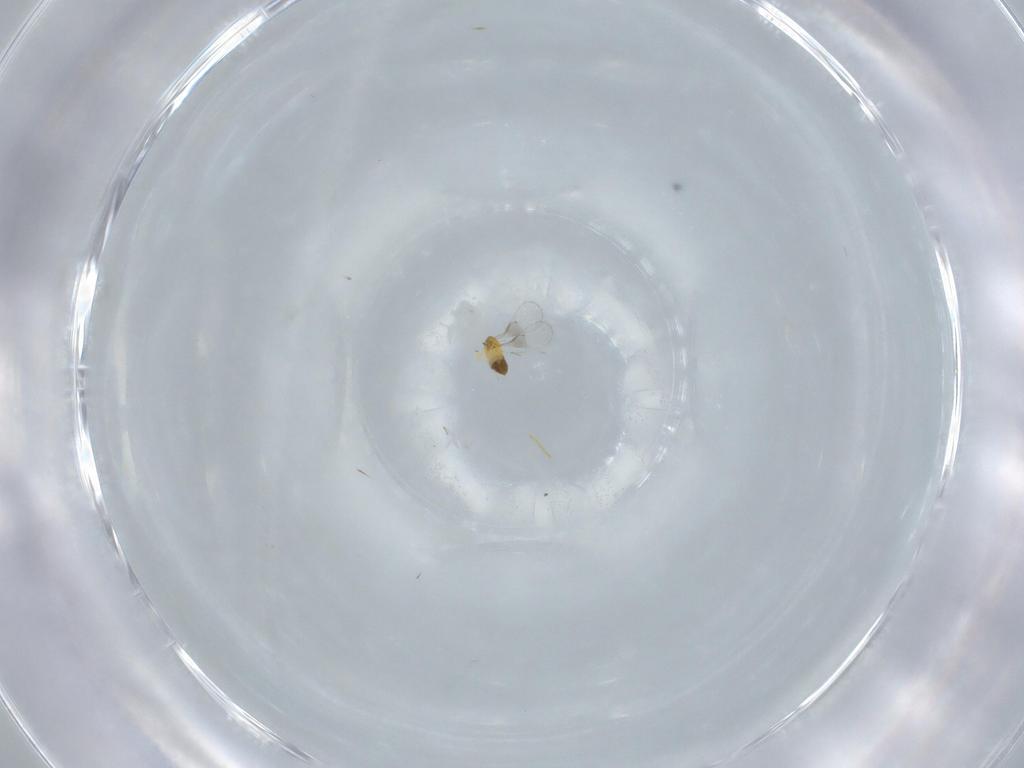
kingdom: Animalia
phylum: Arthropoda
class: Insecta
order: Hymenoptera
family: Trichogrammatidae
